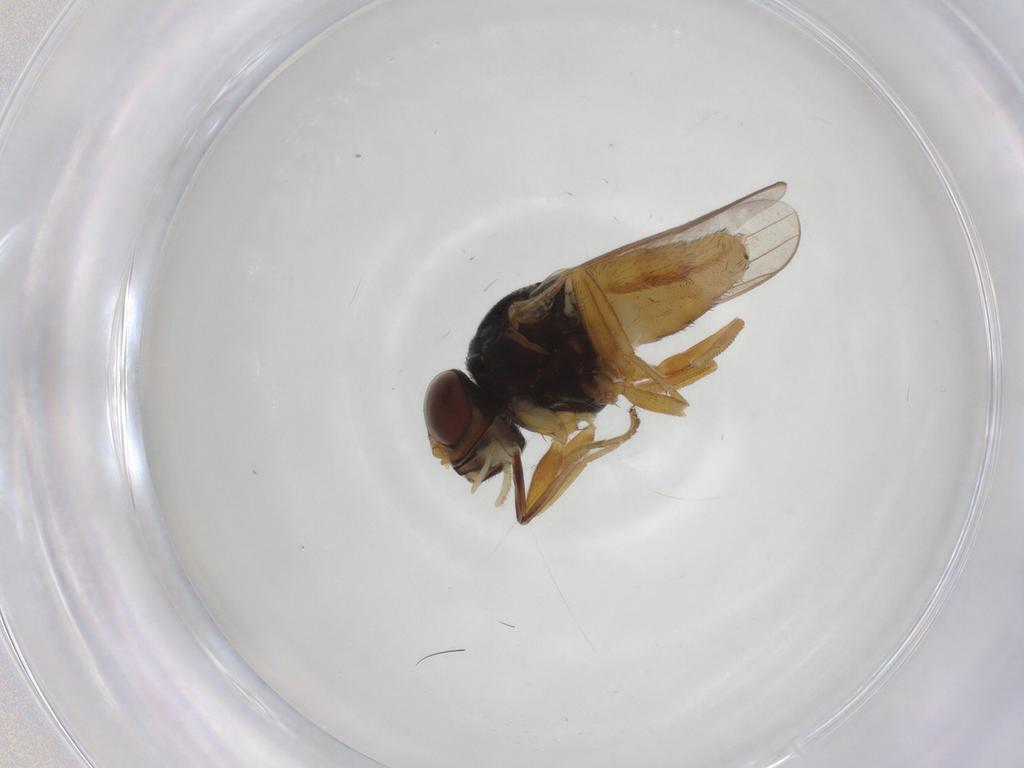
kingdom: Animalia
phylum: Arthropoda
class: Insecta
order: Diptera
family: Chloropidae
